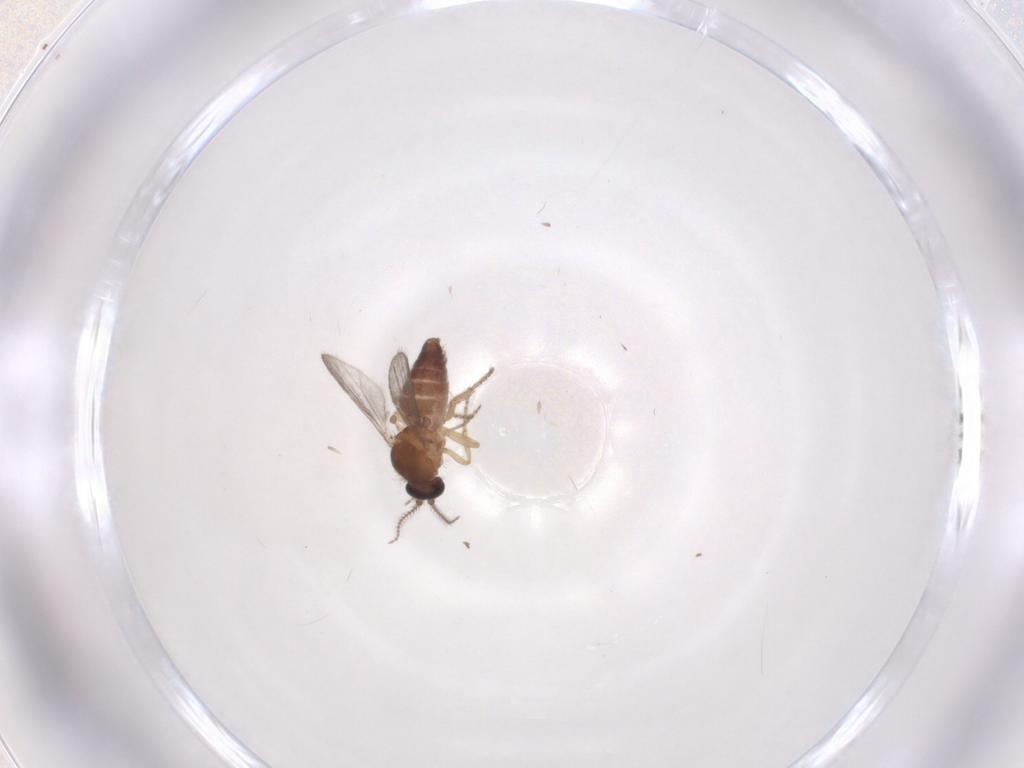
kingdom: Animalia
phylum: Arthropoda
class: Insecta
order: Diptera
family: Ceratopogonidae
